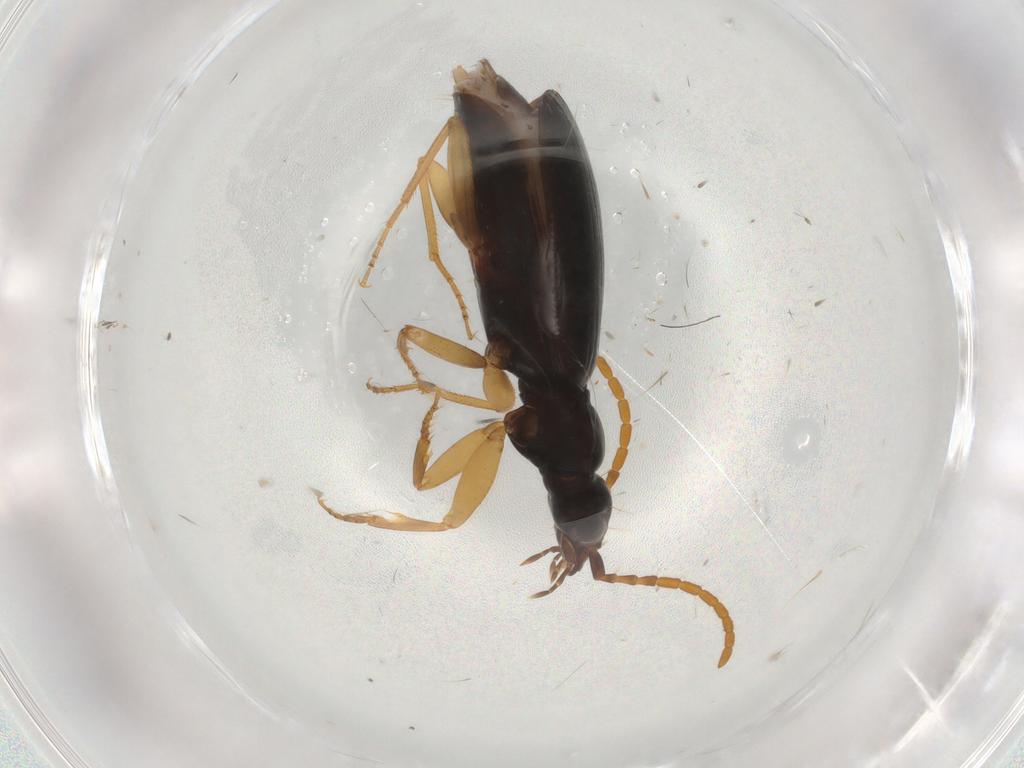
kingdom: Animalia
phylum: Arthropoda
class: Insecta
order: Coleoptera
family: Carabidae
